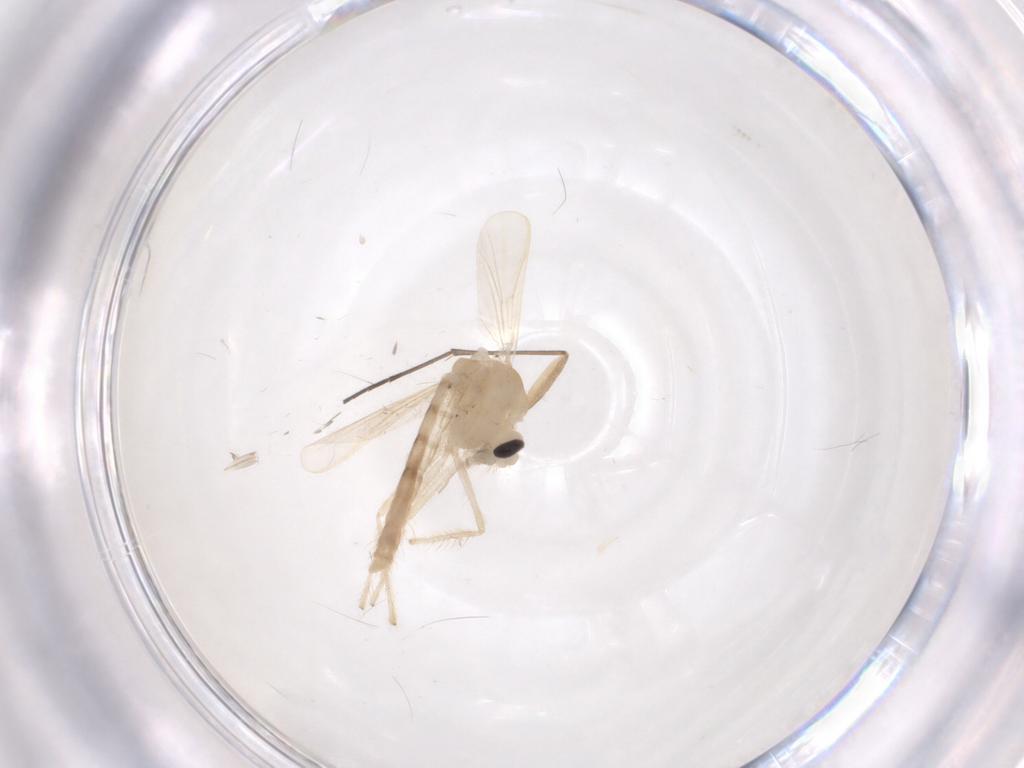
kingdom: Animalia
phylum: Arthropoda
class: Insecta
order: Diptera
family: Chironomidae
